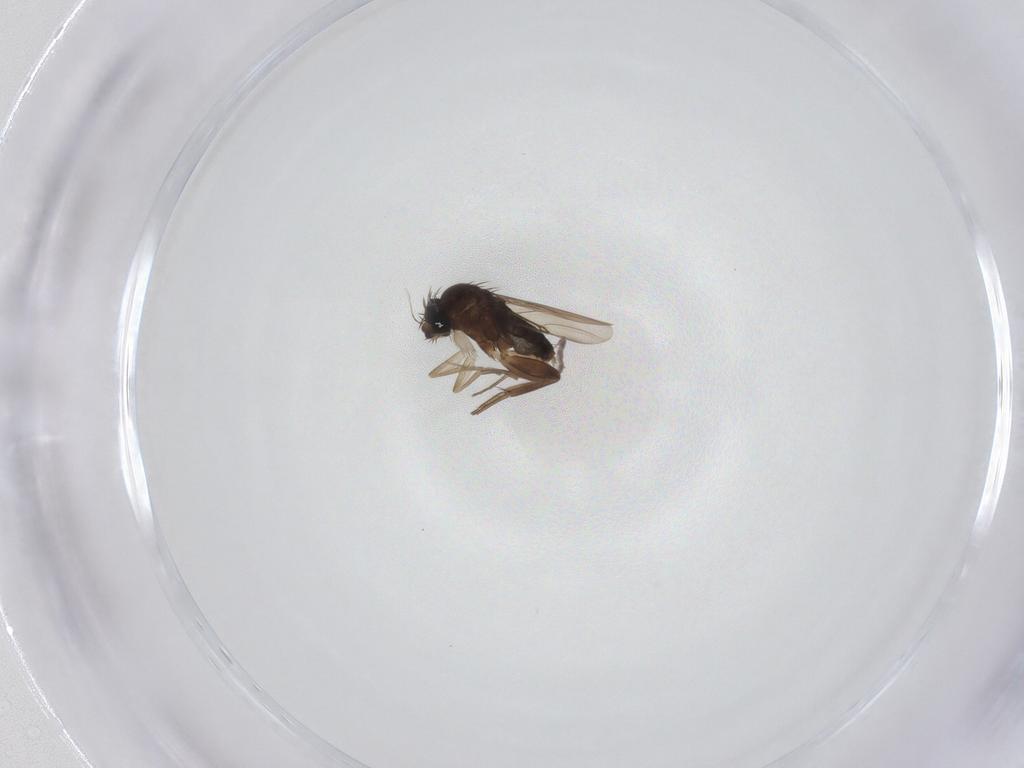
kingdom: Animalia
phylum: Arthropoda
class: Insecta
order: Diptera
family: Phoridae
